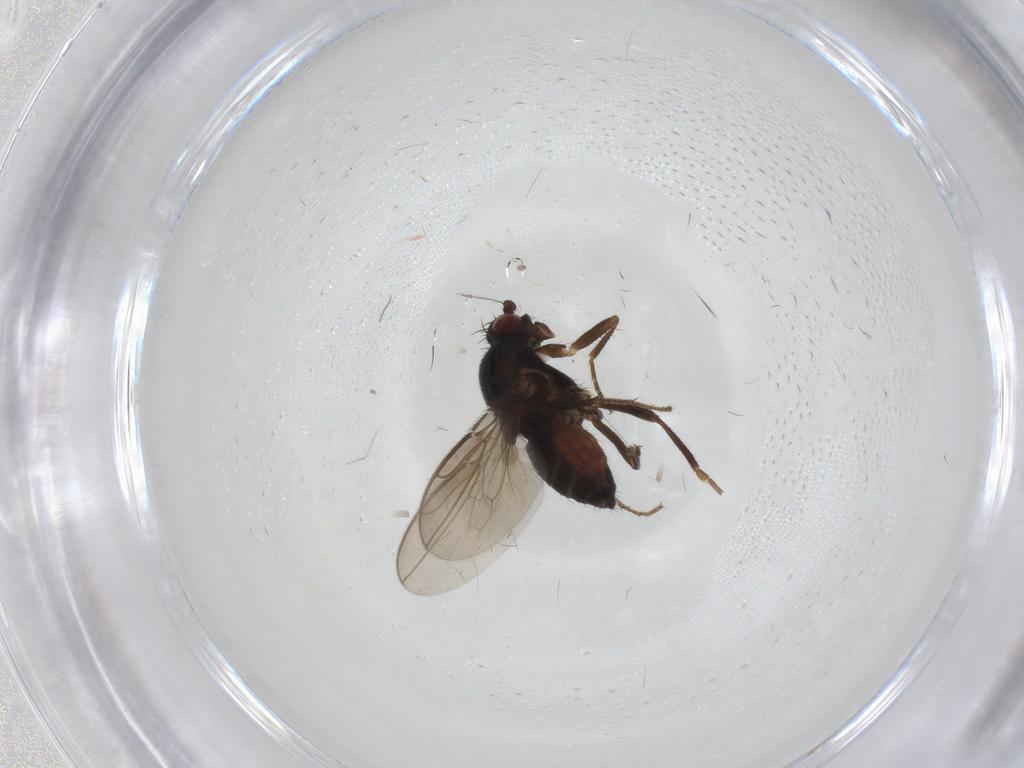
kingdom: Animalia
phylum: Arthropoda
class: Insecta
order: Diptera
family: Sphaeroceridae
